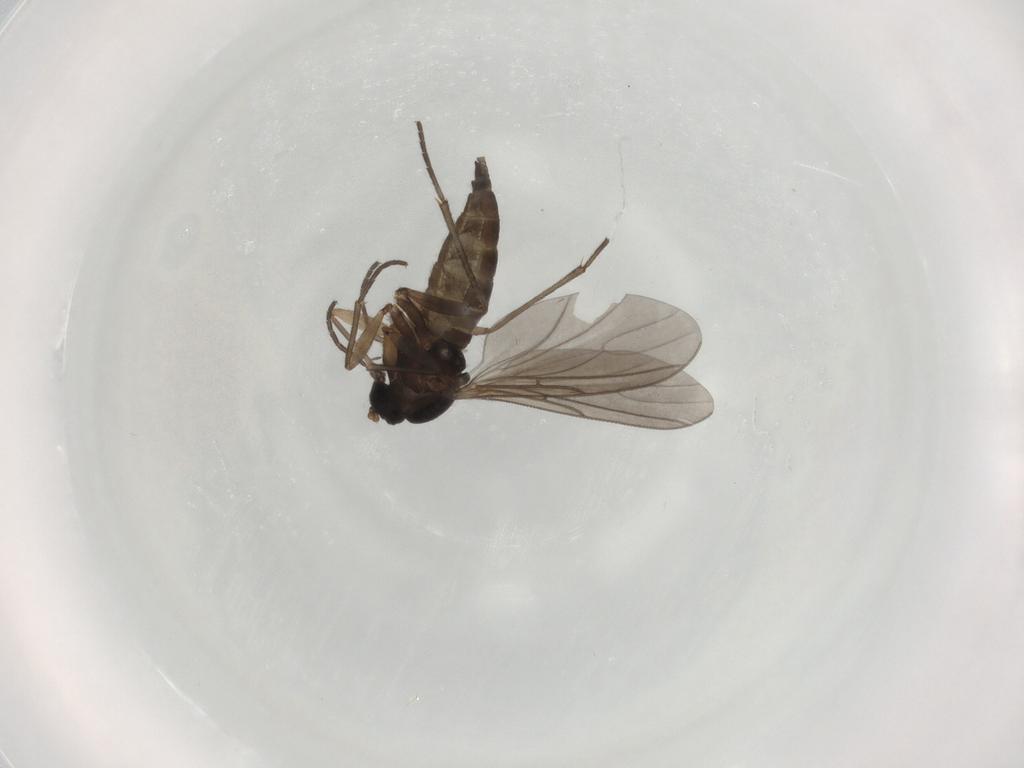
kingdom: Animalia
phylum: Arthropoda
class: Insecta
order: Diptera
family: Sciaridae
